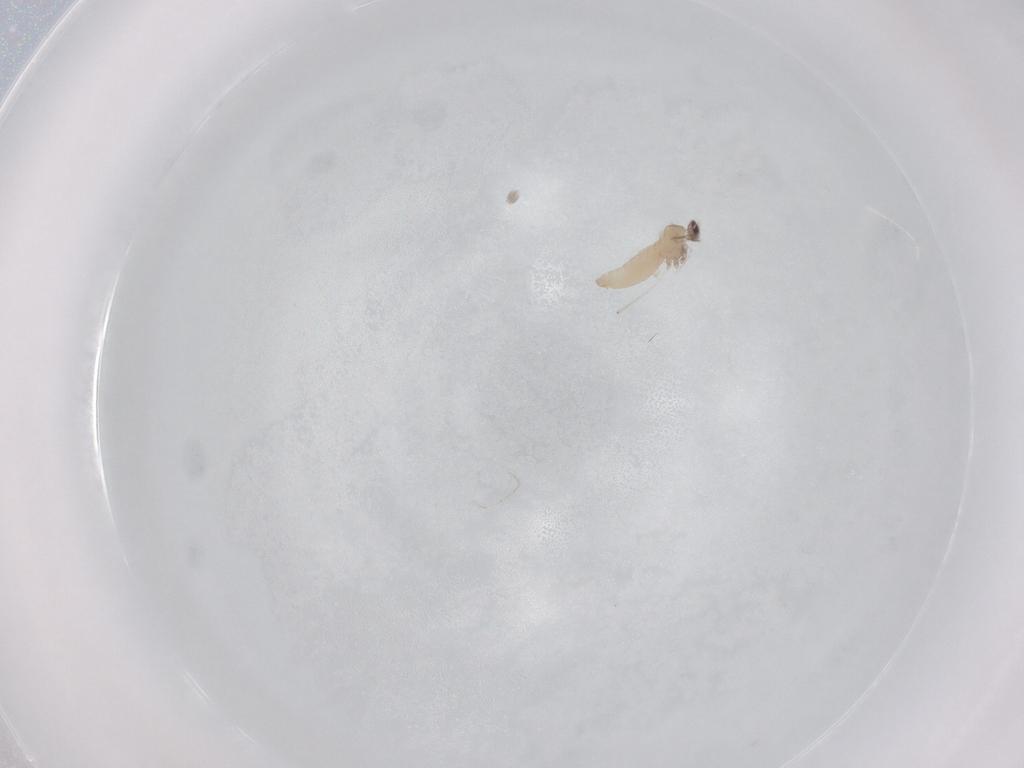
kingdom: Animalia
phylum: Arthropoda
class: Insecta
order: Diptera
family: Cecidomyiidae
